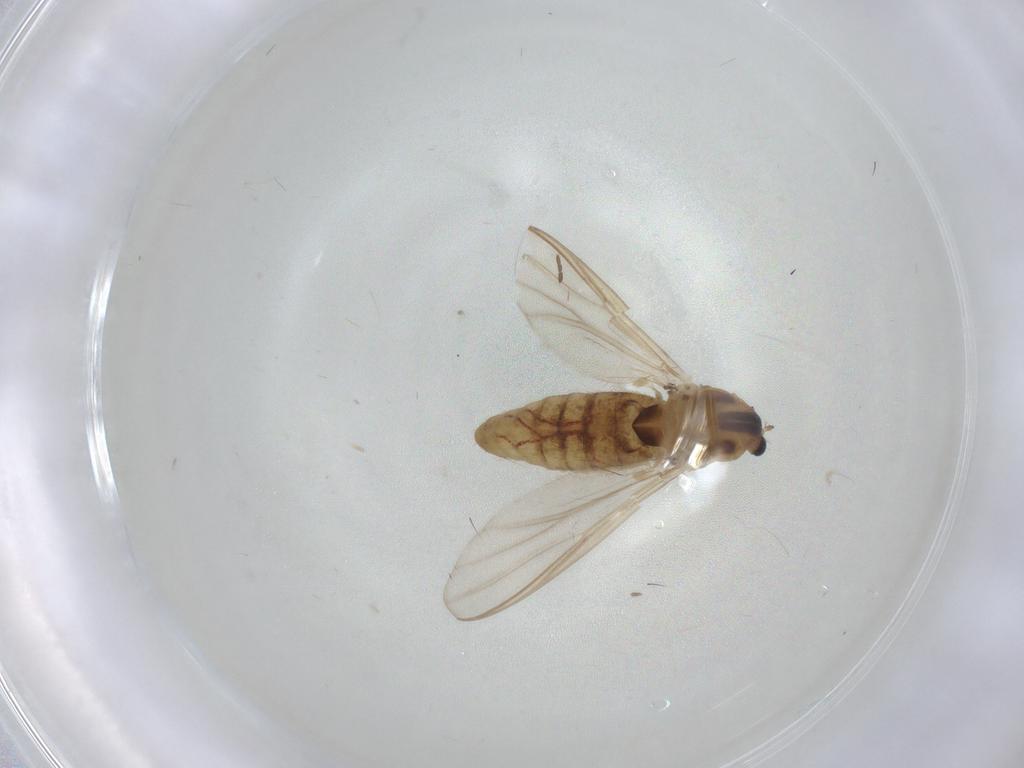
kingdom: Animalia
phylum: Arthropoda
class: Insecta
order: Diptera
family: Chironomidae
